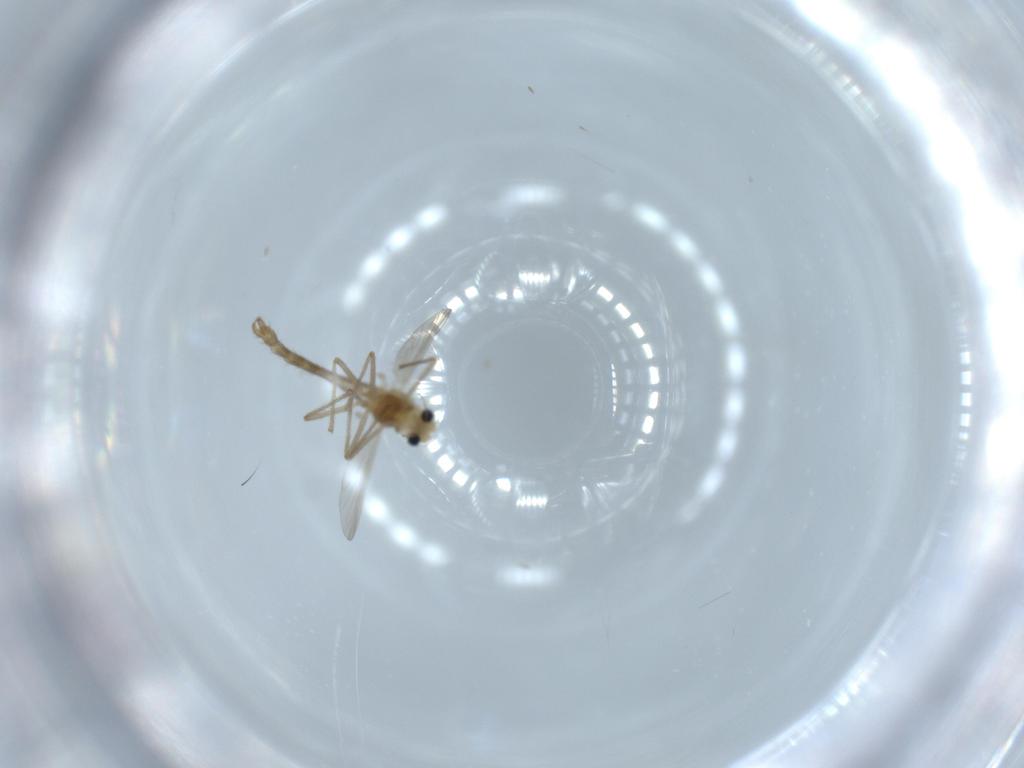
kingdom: Animalia
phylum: Arthropoda
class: Insecta
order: Diptera
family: Chironomidae
